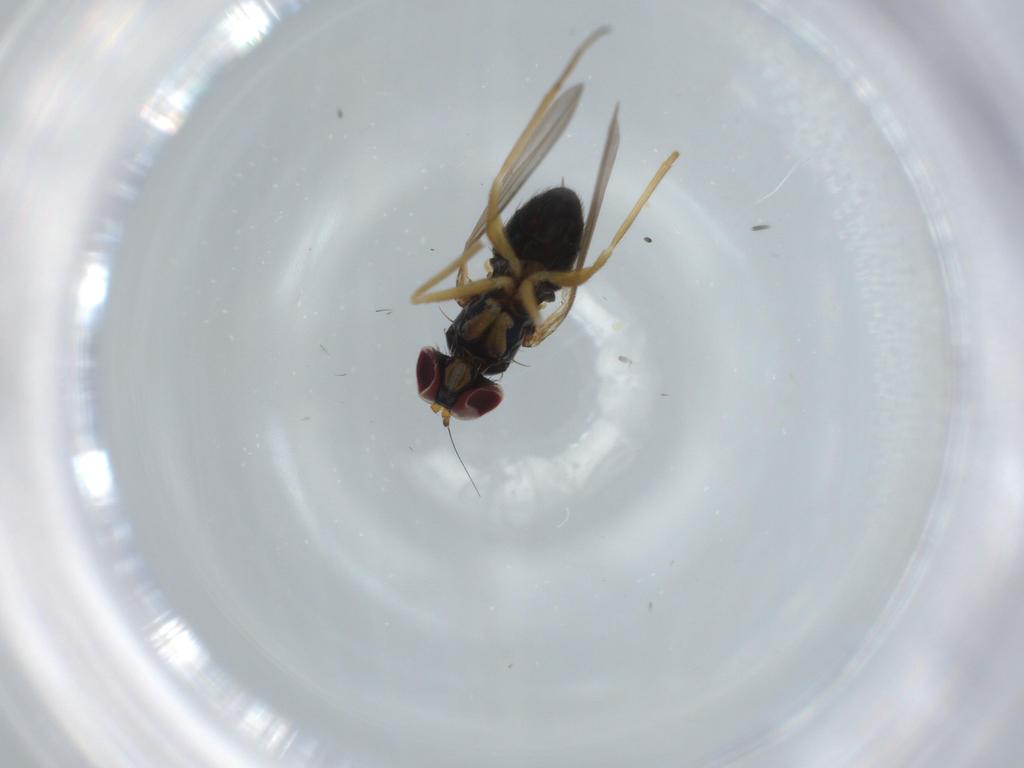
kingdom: Animalia
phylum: Arthropoda
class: Insecta
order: Diptera
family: Dolichopodidae
